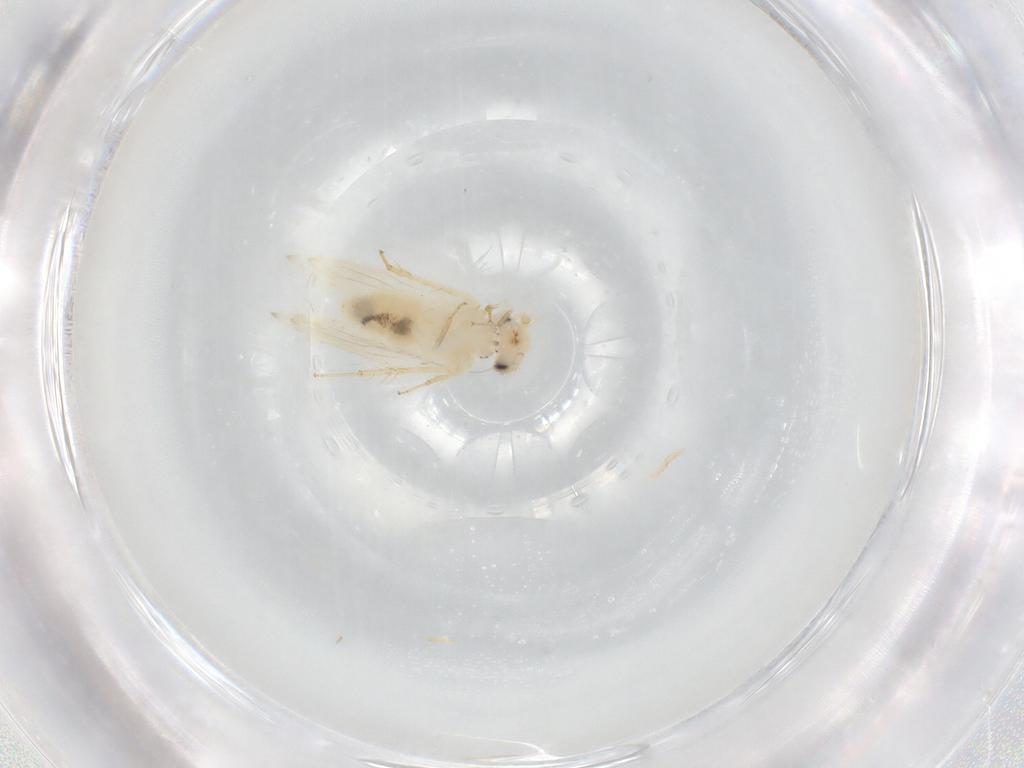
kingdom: Animalia
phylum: Arthropoda
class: Insecta
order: Psocodea
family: Lepidopsocidae
